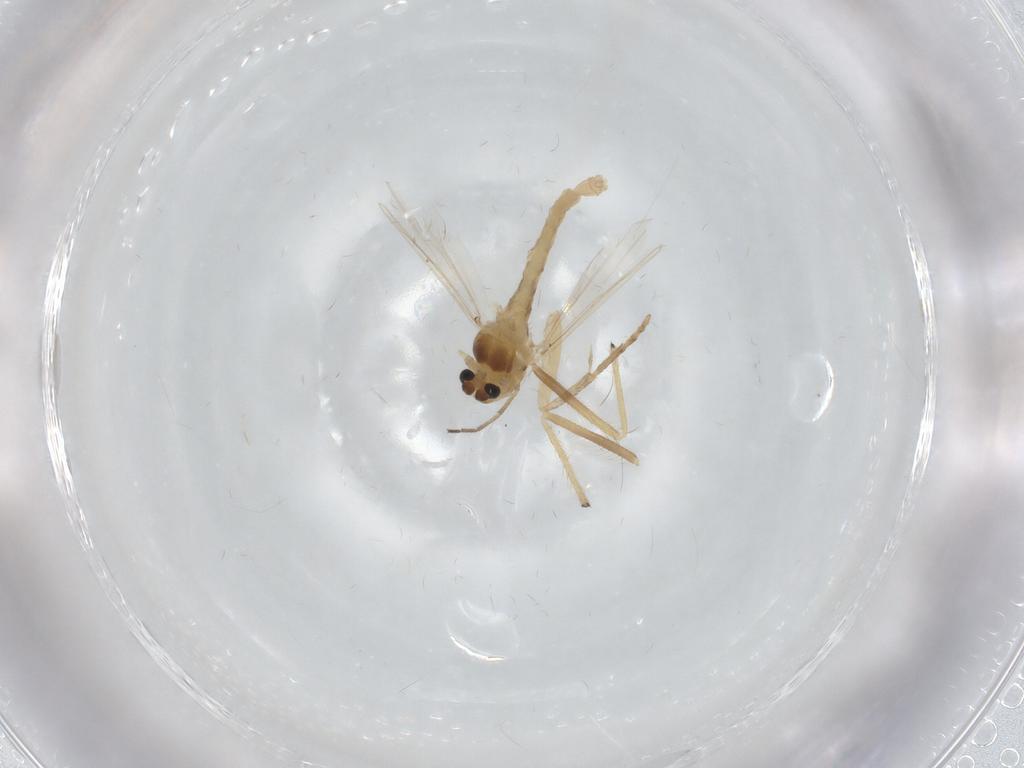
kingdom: Animalia
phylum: Arthropoda
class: Insecta
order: Diptera
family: Chironomidae
